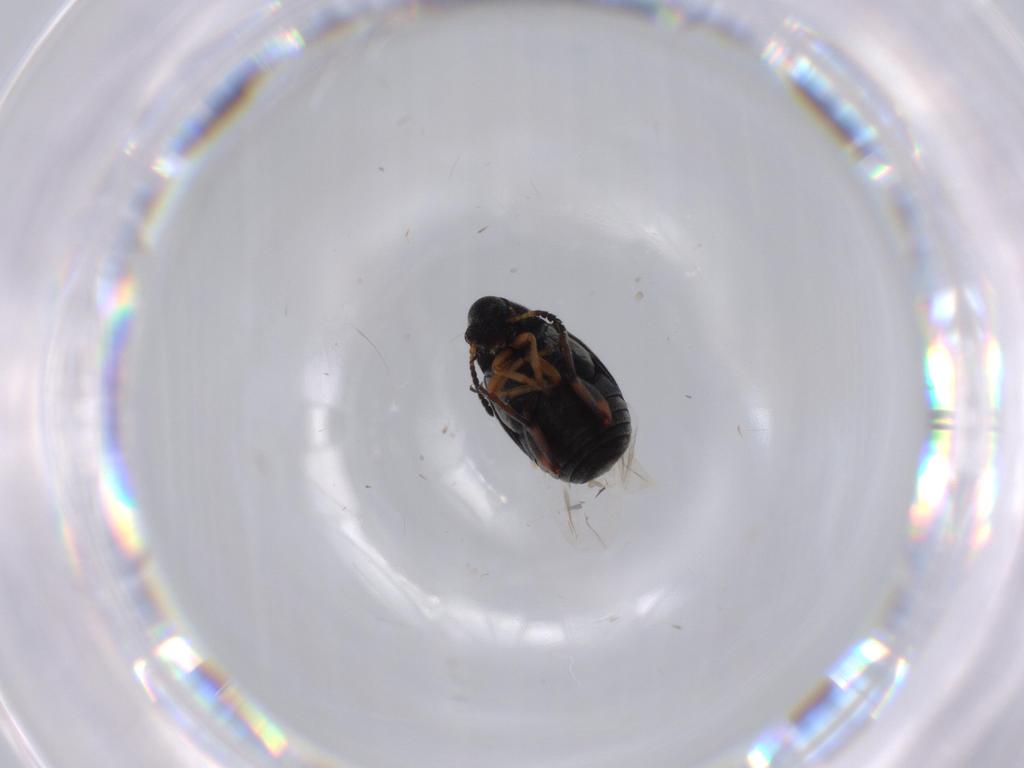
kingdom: Animalia
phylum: Arthropoda
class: Insecta
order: Coleoptera
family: Chrysomelidae
